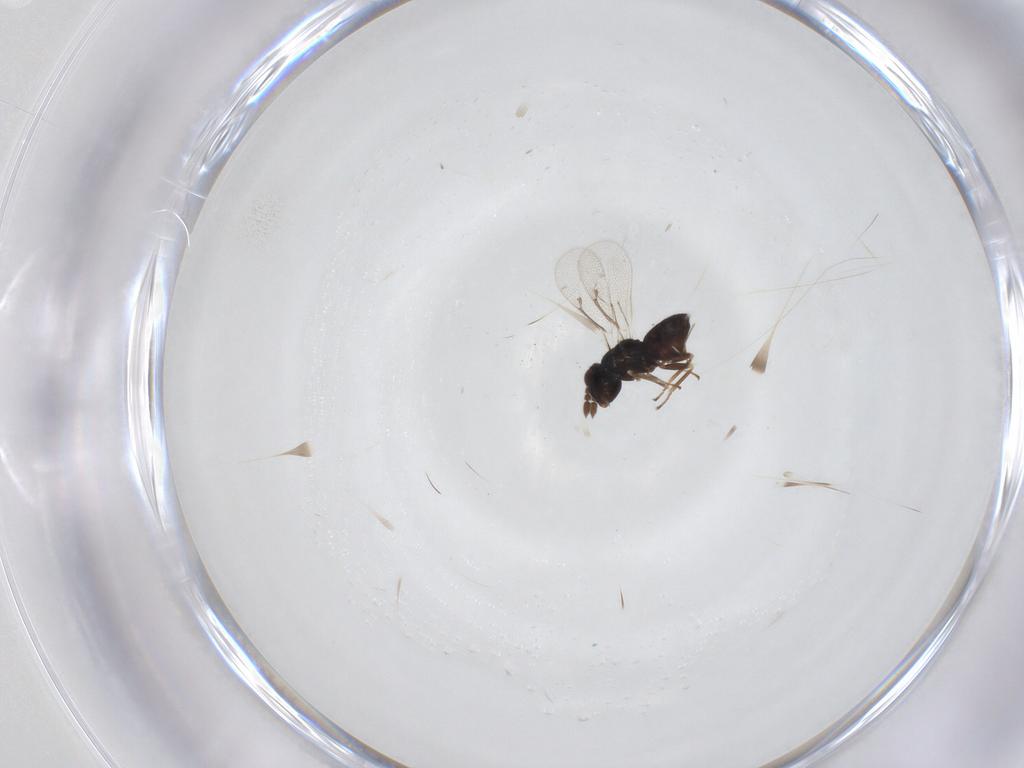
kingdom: Animalia
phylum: Arthropoda
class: Insecta
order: Hymenoptera
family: Eulophidae
